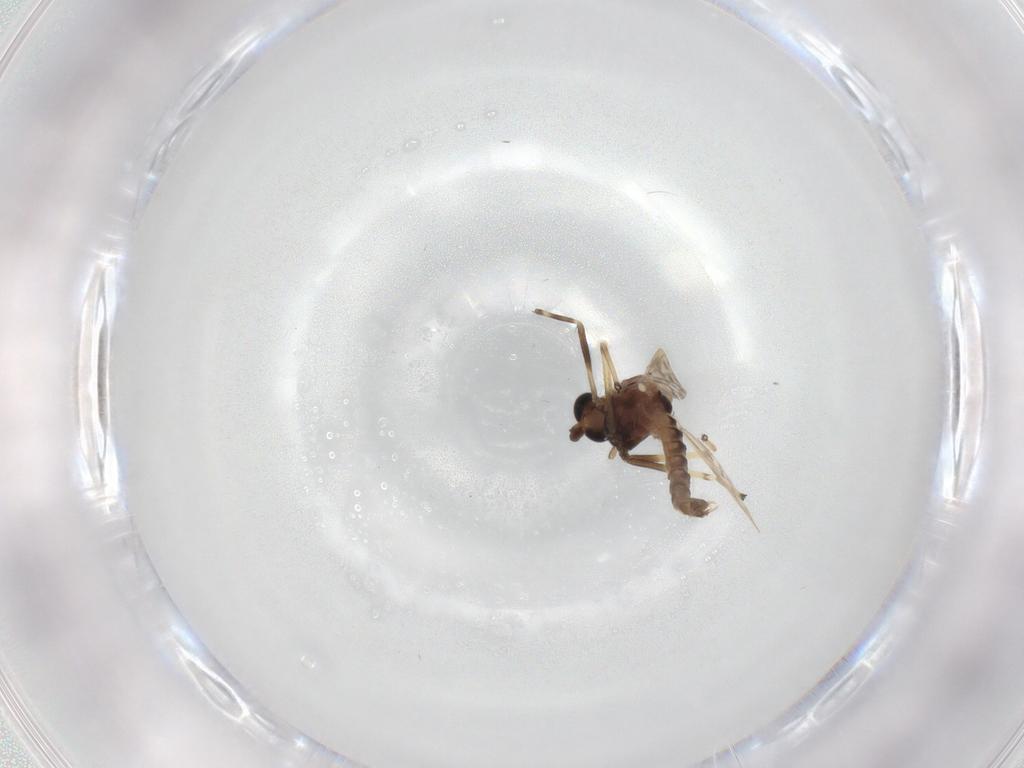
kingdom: Animalia
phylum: Arthropoda
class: Insecta
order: Diptera
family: Chironomidae
